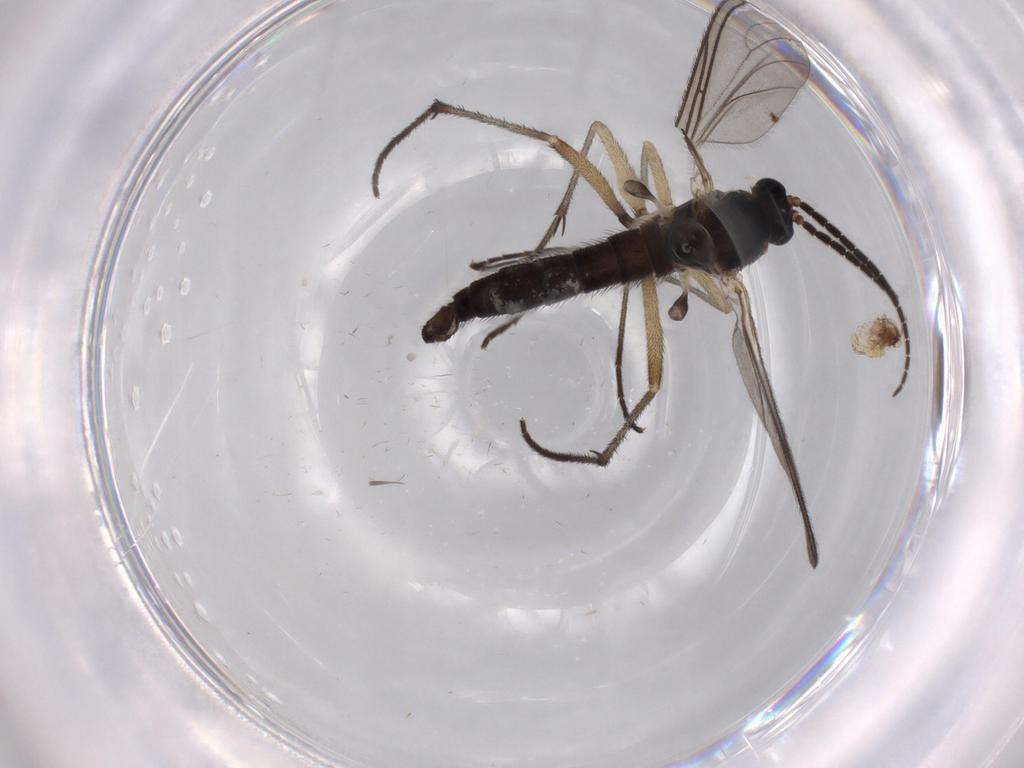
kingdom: Animalia
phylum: Arthropoda
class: Insecta
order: Diptera
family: Sciaridae
